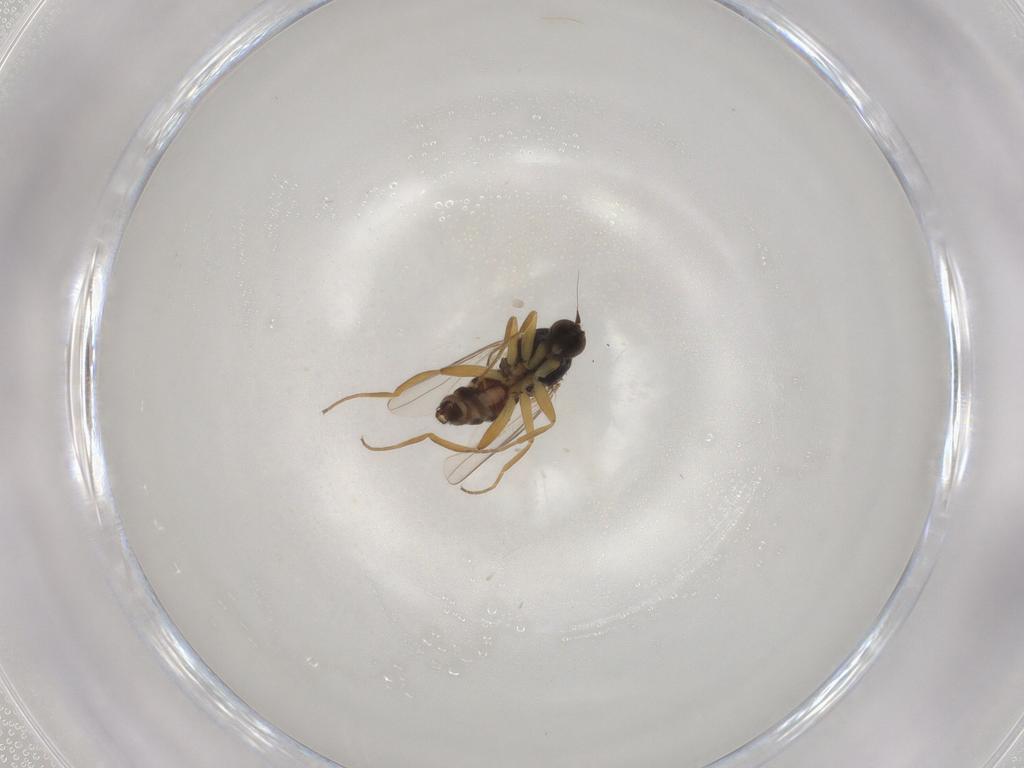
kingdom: Animalia
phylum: Arthropoda
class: Insecta
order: Diptera
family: Hybotidae
